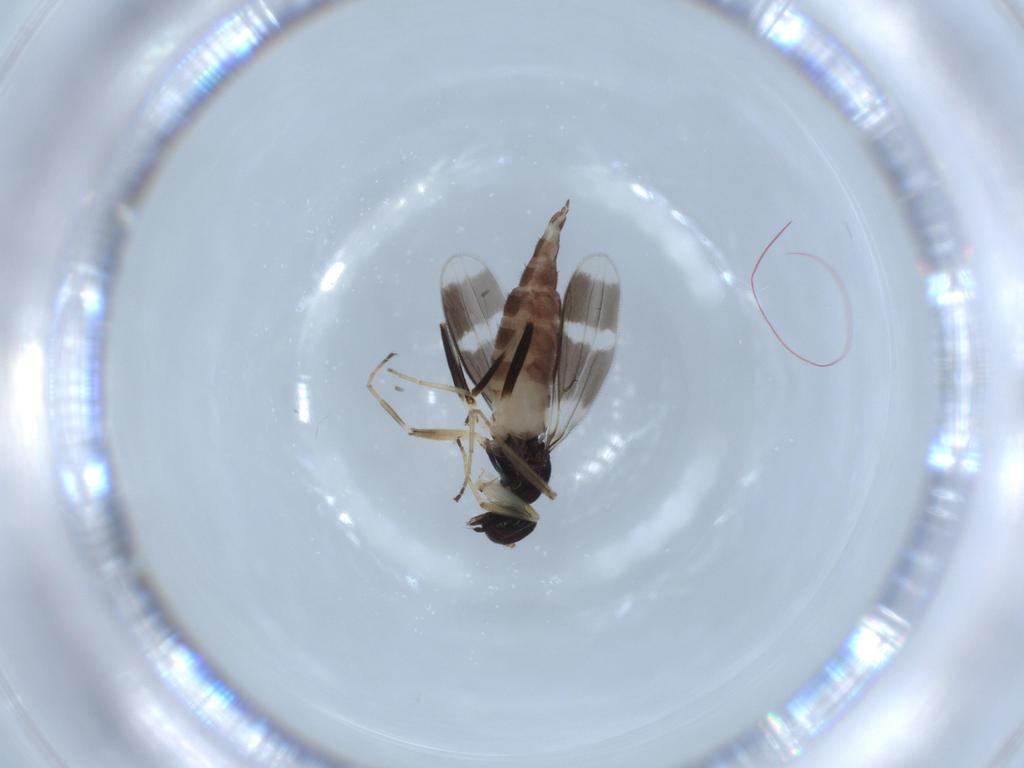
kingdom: Animalia
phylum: Arthropoda
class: Insecta
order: Diptera
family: Hybotidae
